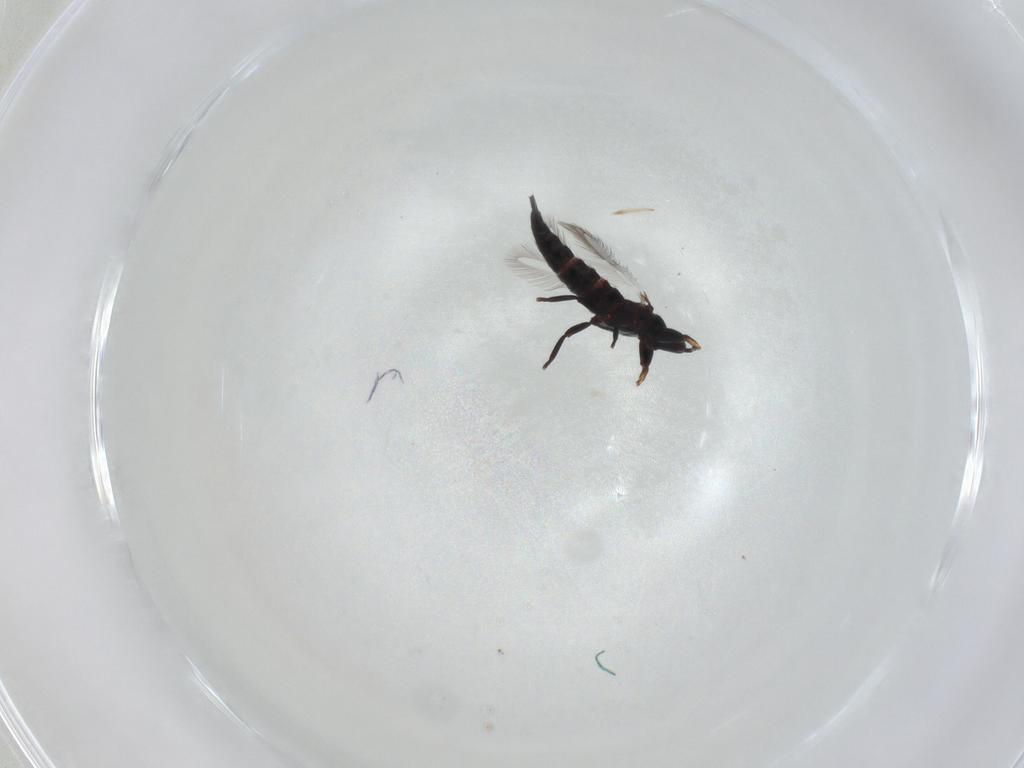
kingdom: Animalia
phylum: Arthropoda
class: Insecta
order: Thysanoptera
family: Phlaeothripidae
